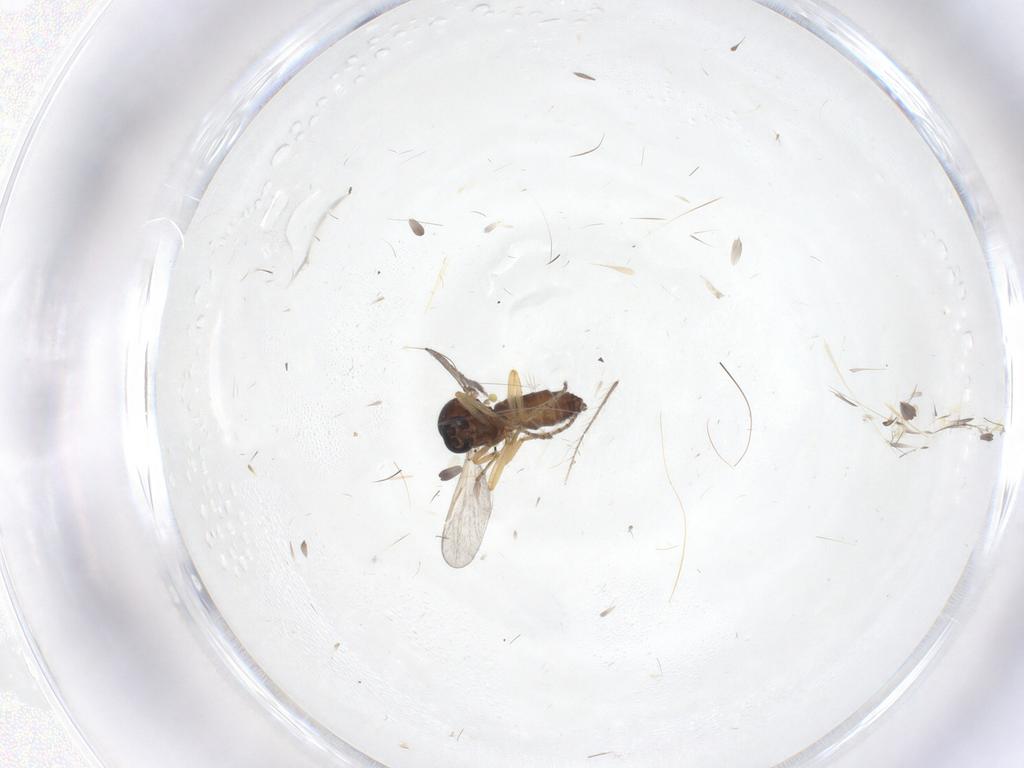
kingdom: Animalia
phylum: Arthropoda
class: Insecta
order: Diptera
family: Ceratopogonidae
